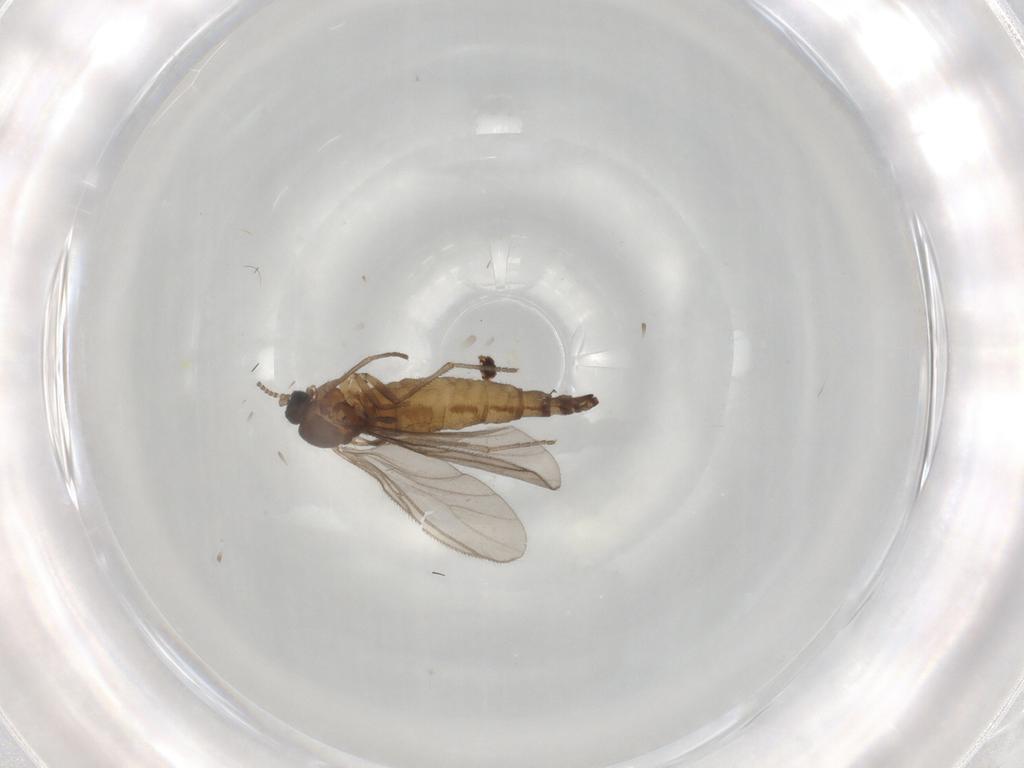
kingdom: Animalia
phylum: Arthropoda
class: Insecta
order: Diptera
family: Sciaridae
